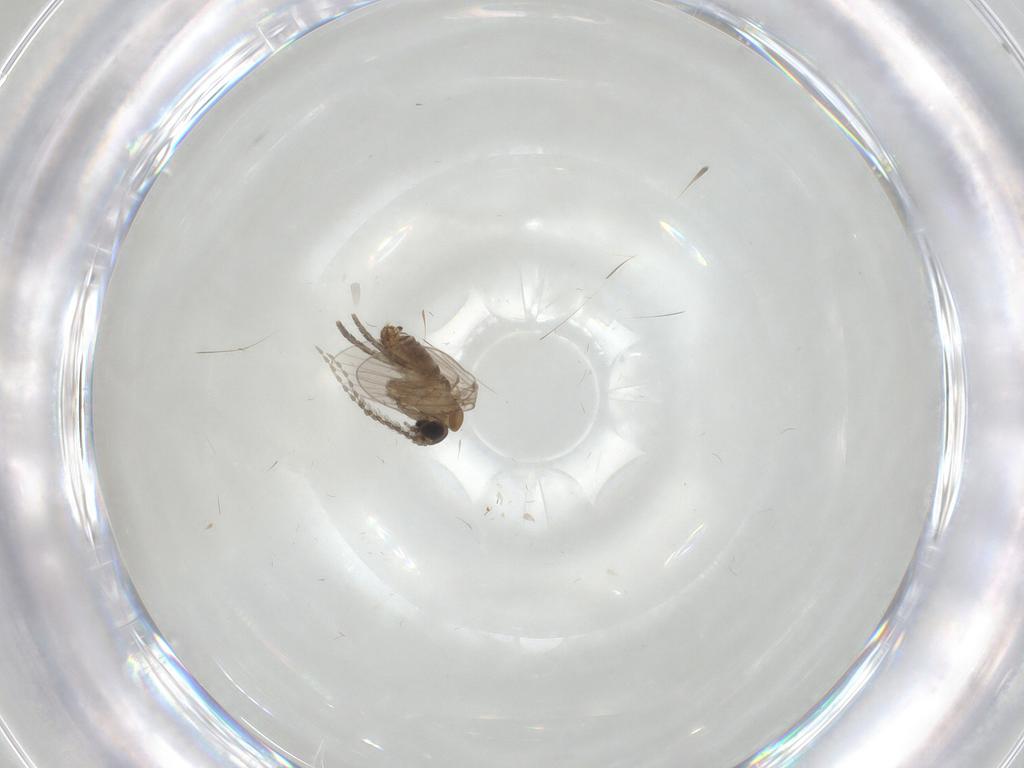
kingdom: Animalia
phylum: Arthropoda
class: Insecta
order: Diptera
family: Psychodidae
